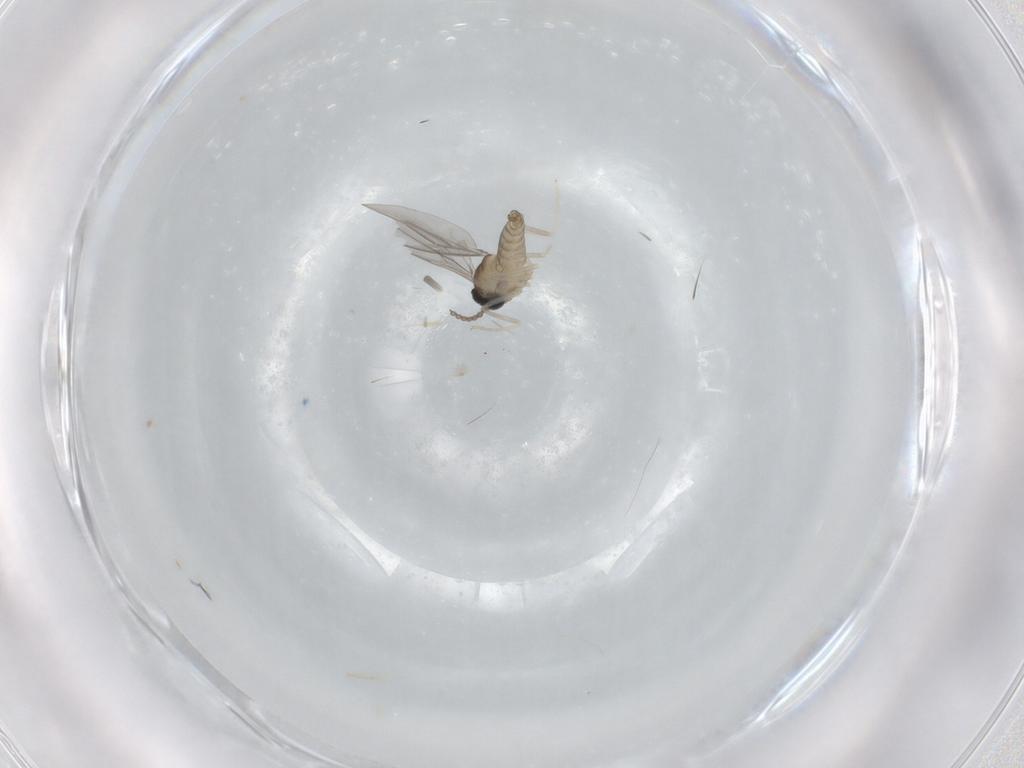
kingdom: Animalia
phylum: Arthropoda
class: Insecta
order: Diptera
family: Cecidomyiidae
